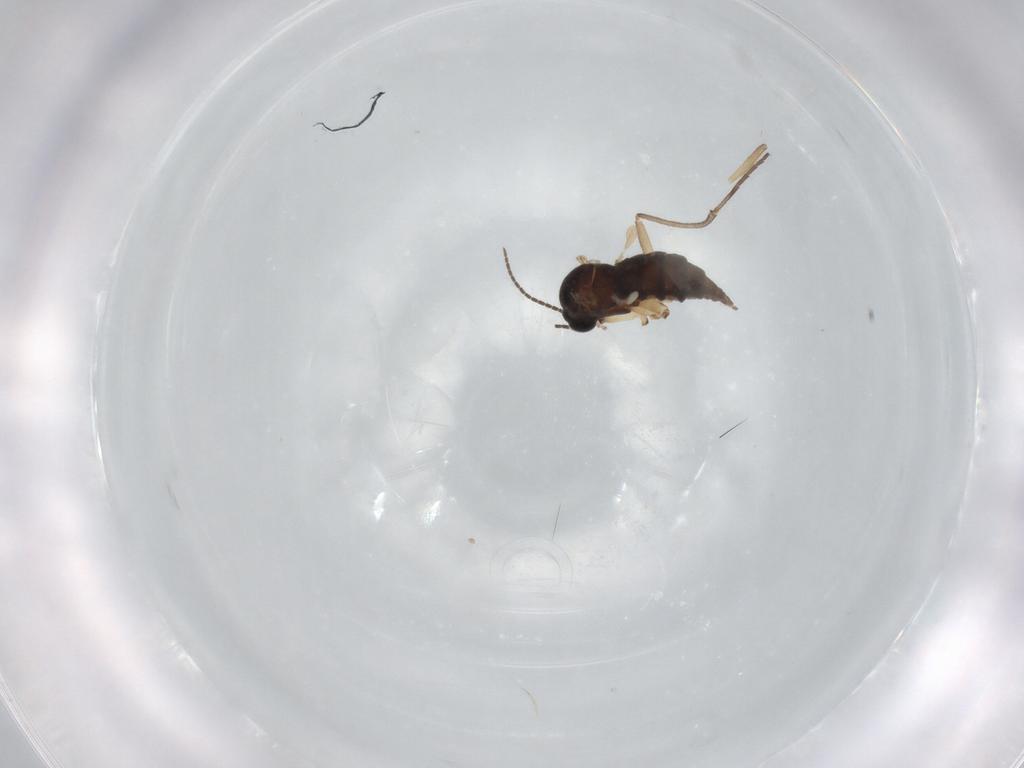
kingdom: Animalia
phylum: Arthropoda
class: Insecta
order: Diptera
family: Sciaridae
